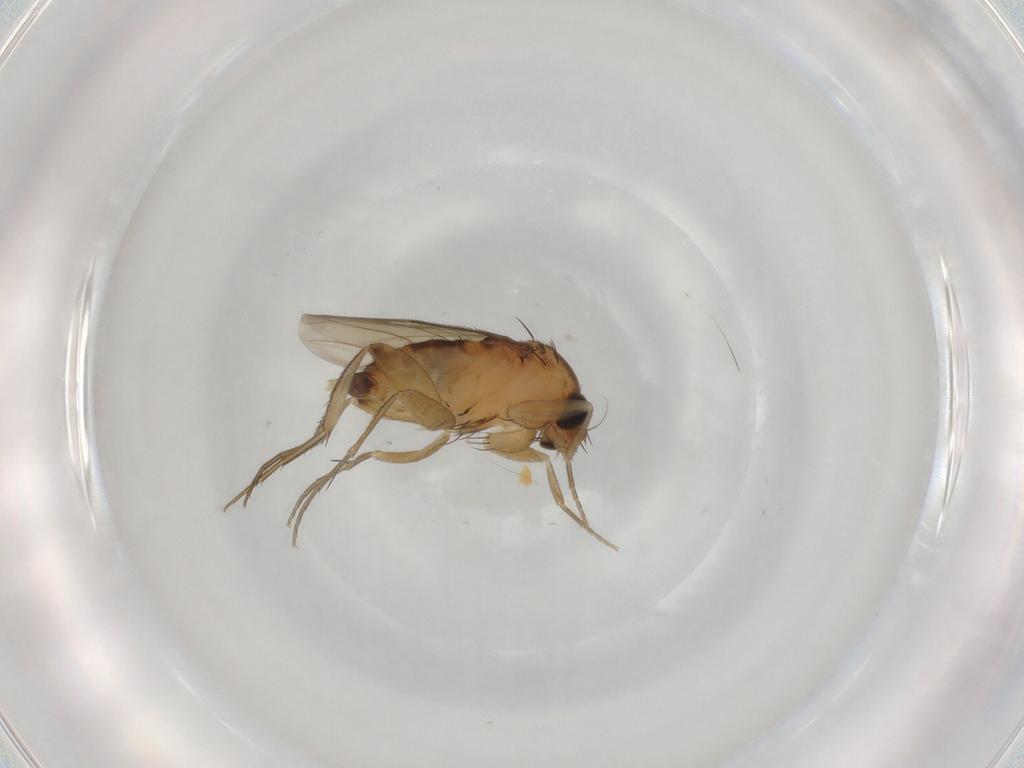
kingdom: Animalia
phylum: Arthropoda
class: Insecta
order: Diptera
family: Phoridae
